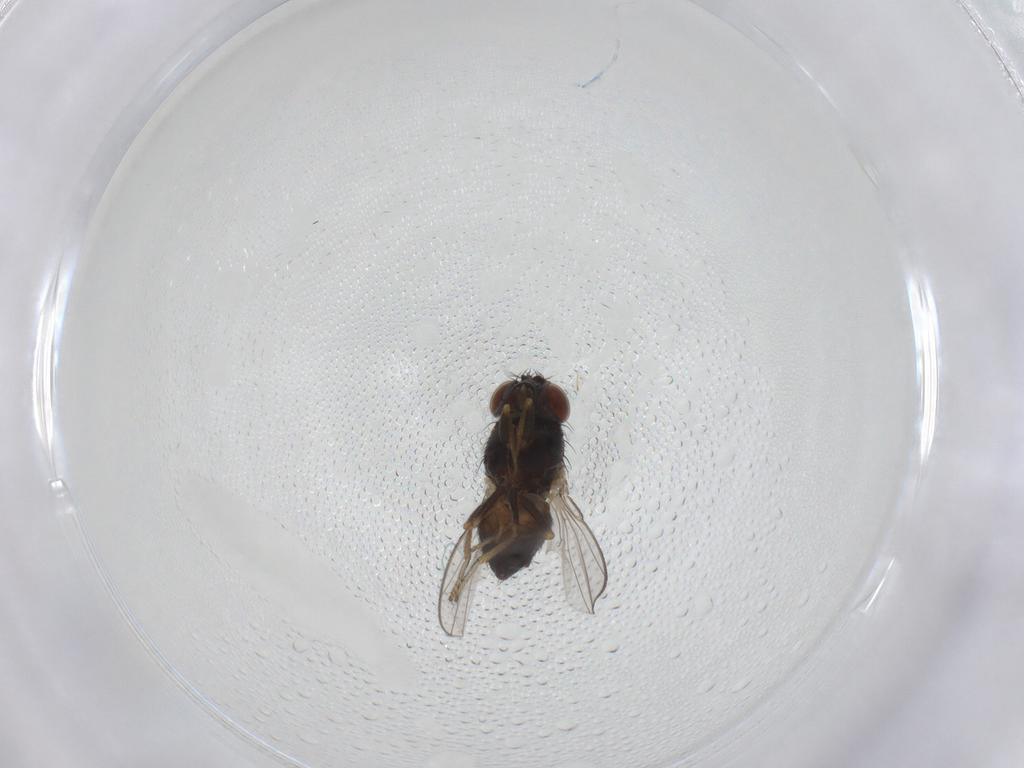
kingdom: Animalia
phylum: Arthropoda
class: Insecta
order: Diptera
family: Ephydridae
